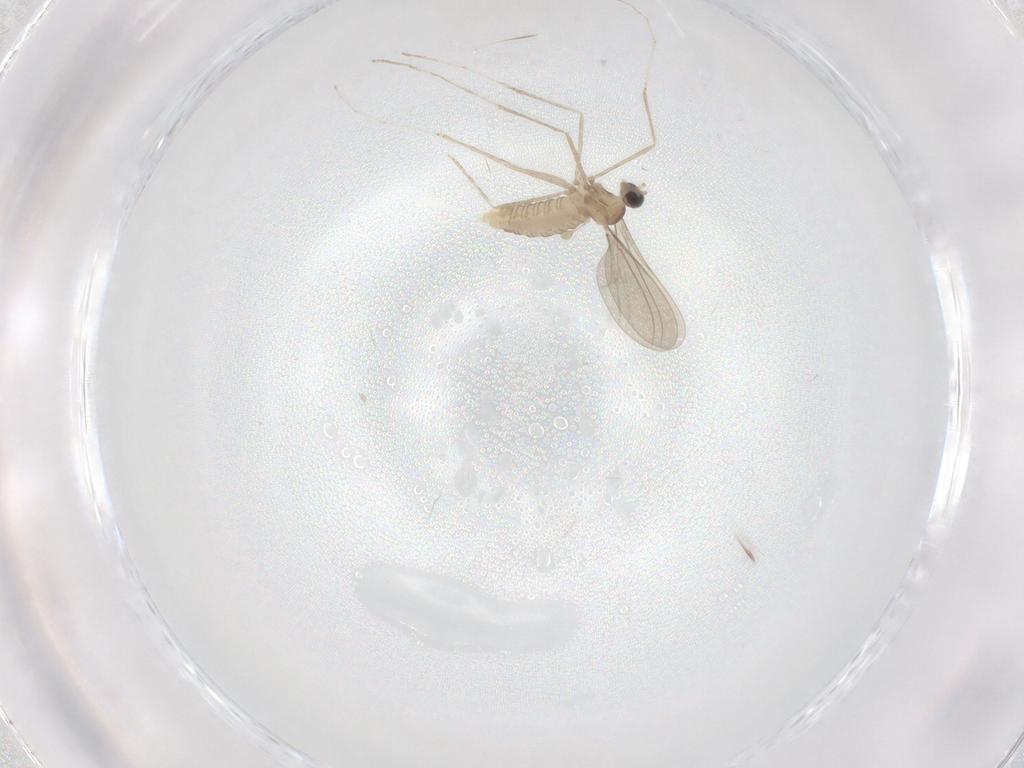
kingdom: Animalia
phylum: Arthropoda
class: Insecta
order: Diptera
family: Cecidomyiidae
